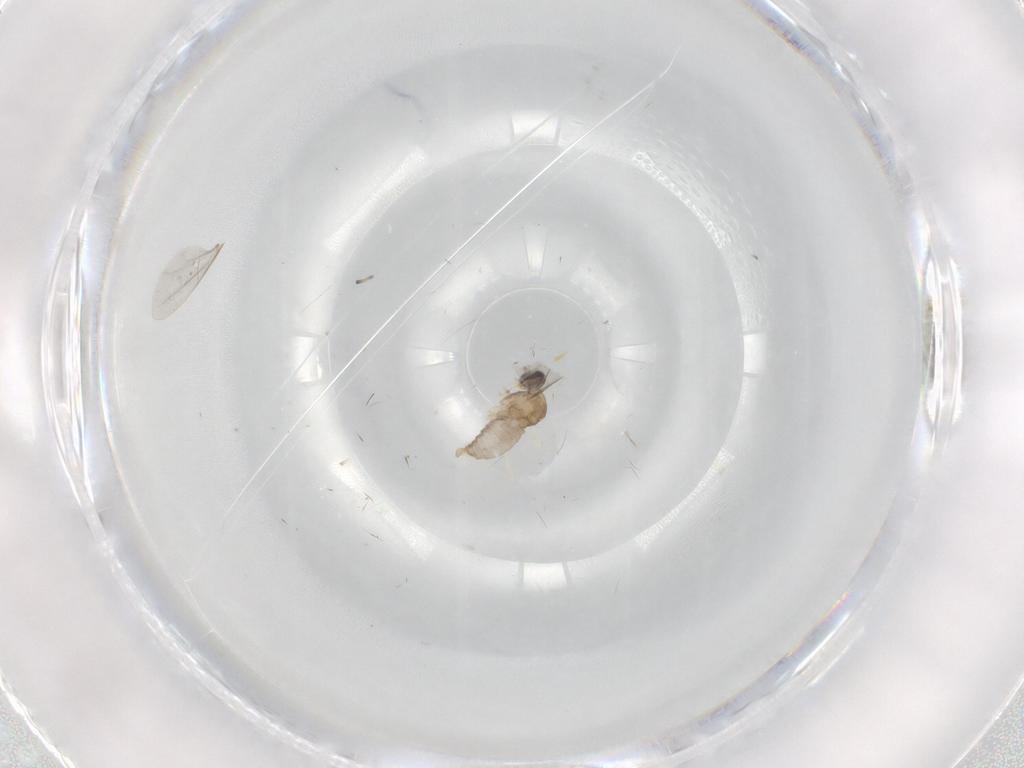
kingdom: Animalia
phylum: Arthropoda
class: Insecta
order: Diptera
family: Cecidomyiidae
